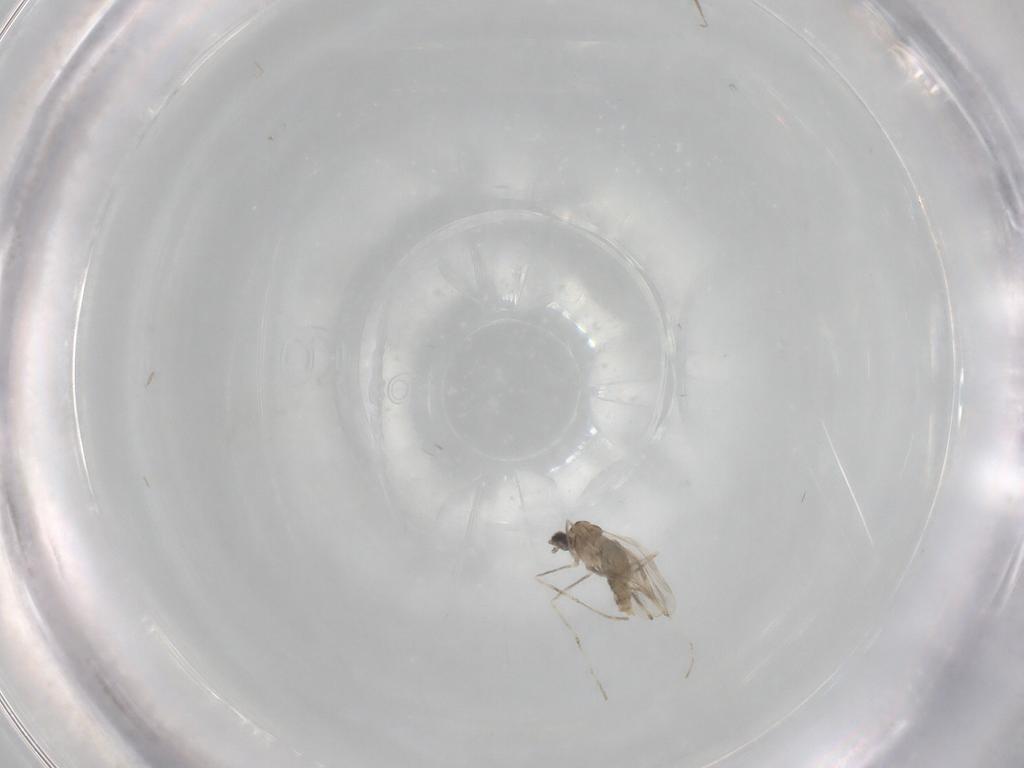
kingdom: Animalia
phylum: Arthropoda
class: Insecta
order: Diptera
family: Cecidomyiidae
